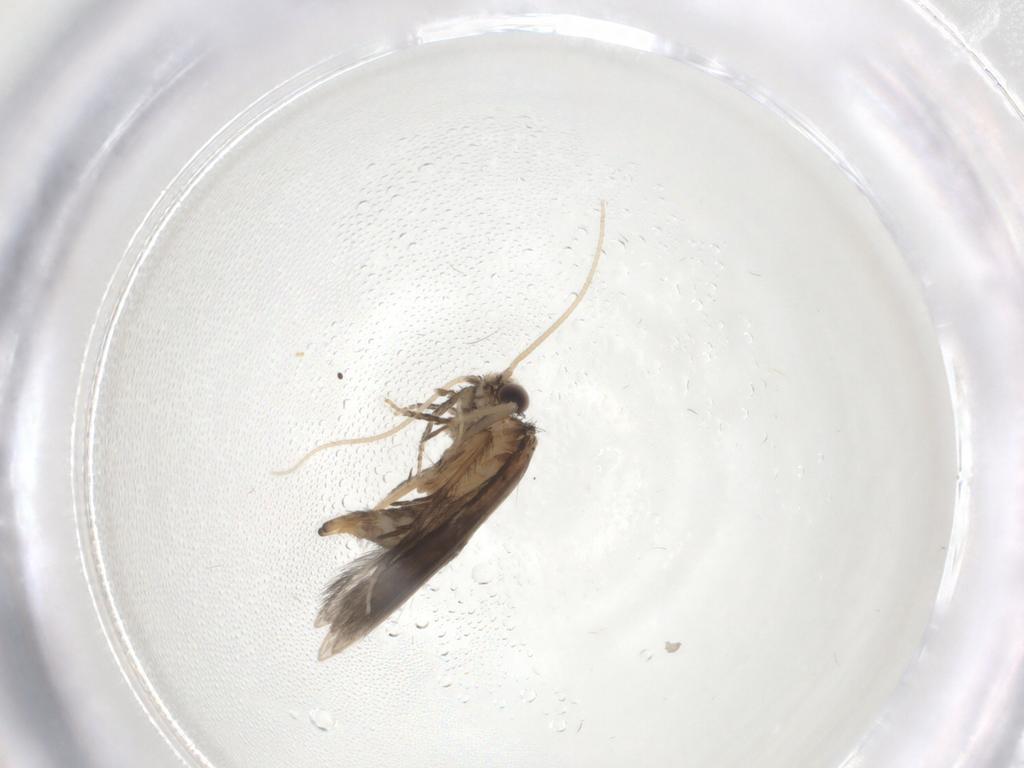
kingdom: Animalia
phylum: Arthropoda
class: Insecta
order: Trichoptera
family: Hydroptilidae
